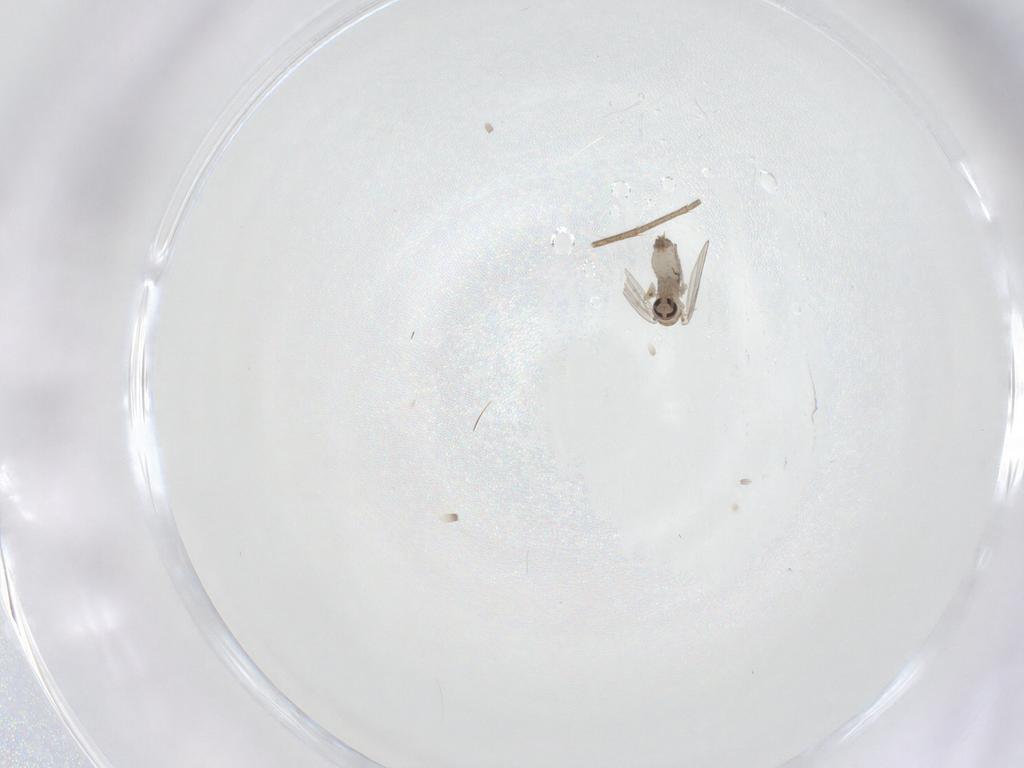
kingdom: Animalia
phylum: Arthropoda
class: Insecta
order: Diptera
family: Psychodidae
